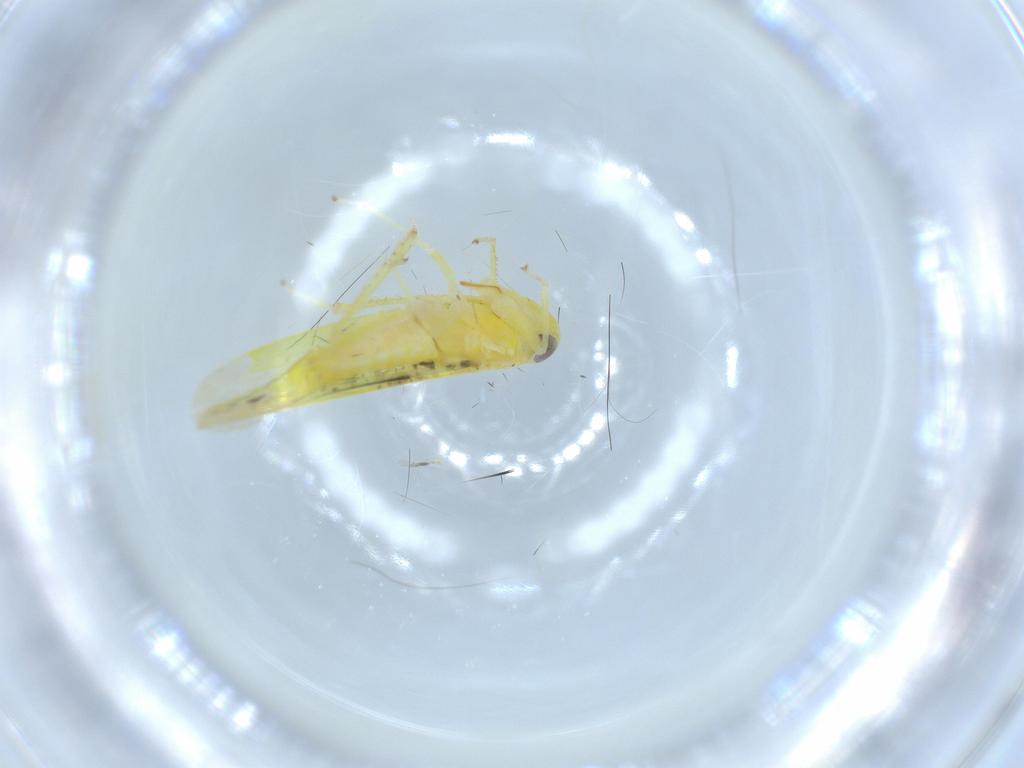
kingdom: Animalia
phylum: Arthropoda
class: Insecta
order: Hemiptera
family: Cicadellidae
